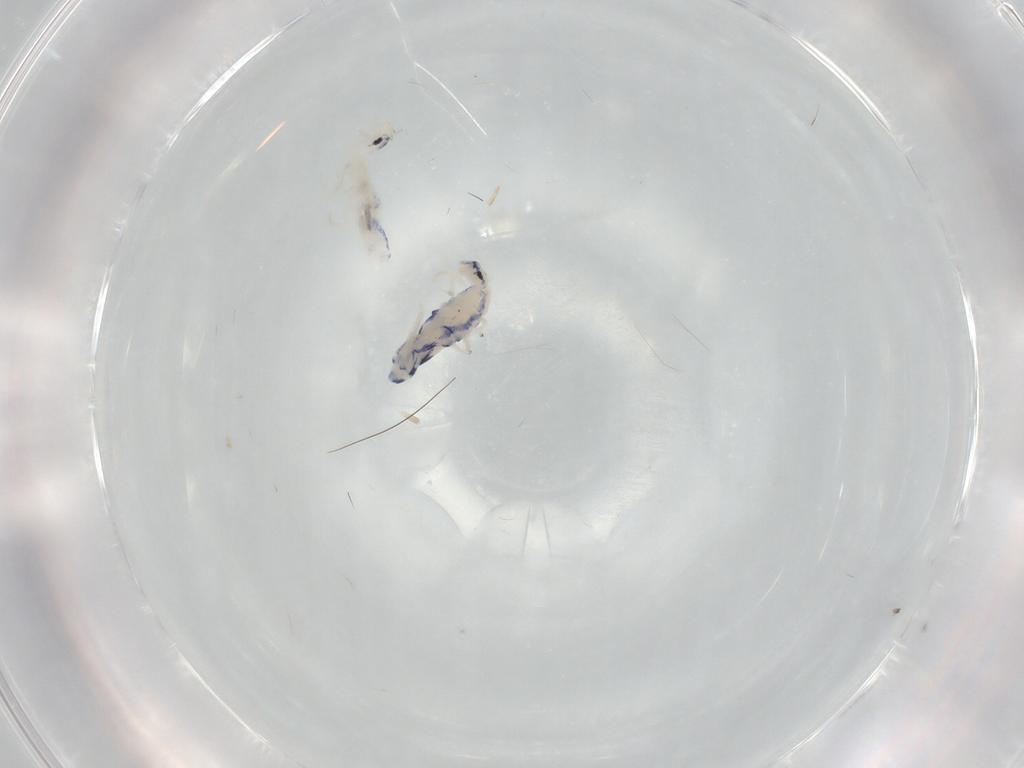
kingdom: Animalia
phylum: Arthropoda
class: Collembola
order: Entomobryomorpha
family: Entomobryidae
